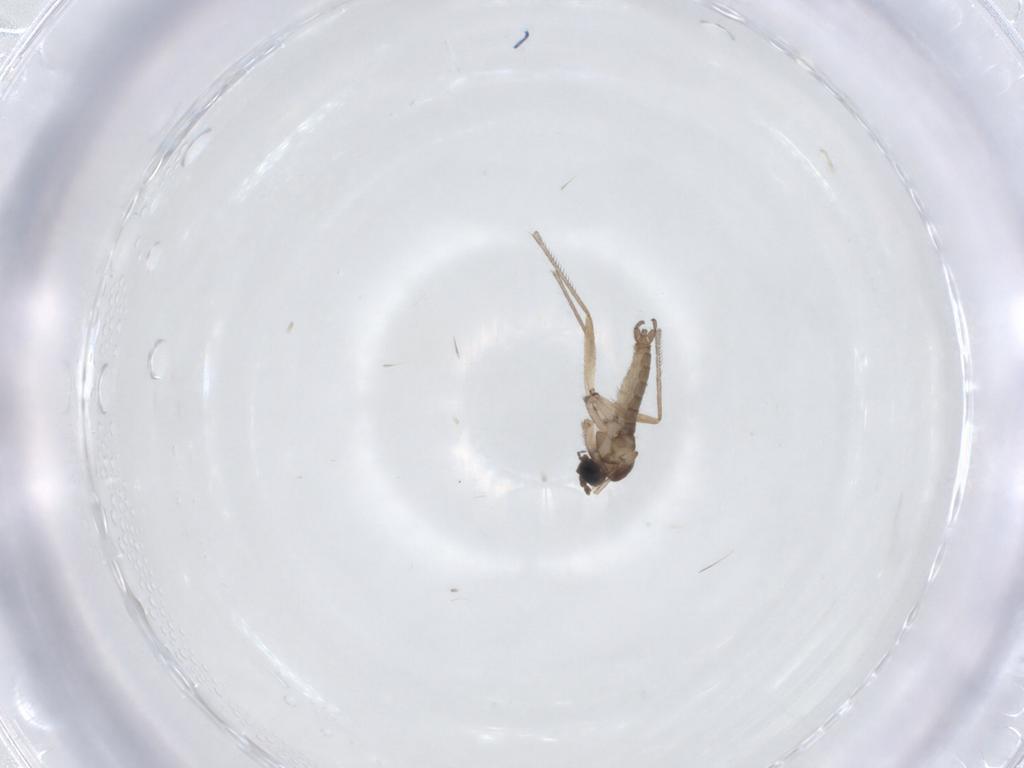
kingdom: Animalia
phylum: Arthropoda
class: Insecta
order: Diptera
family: Sciaridae
